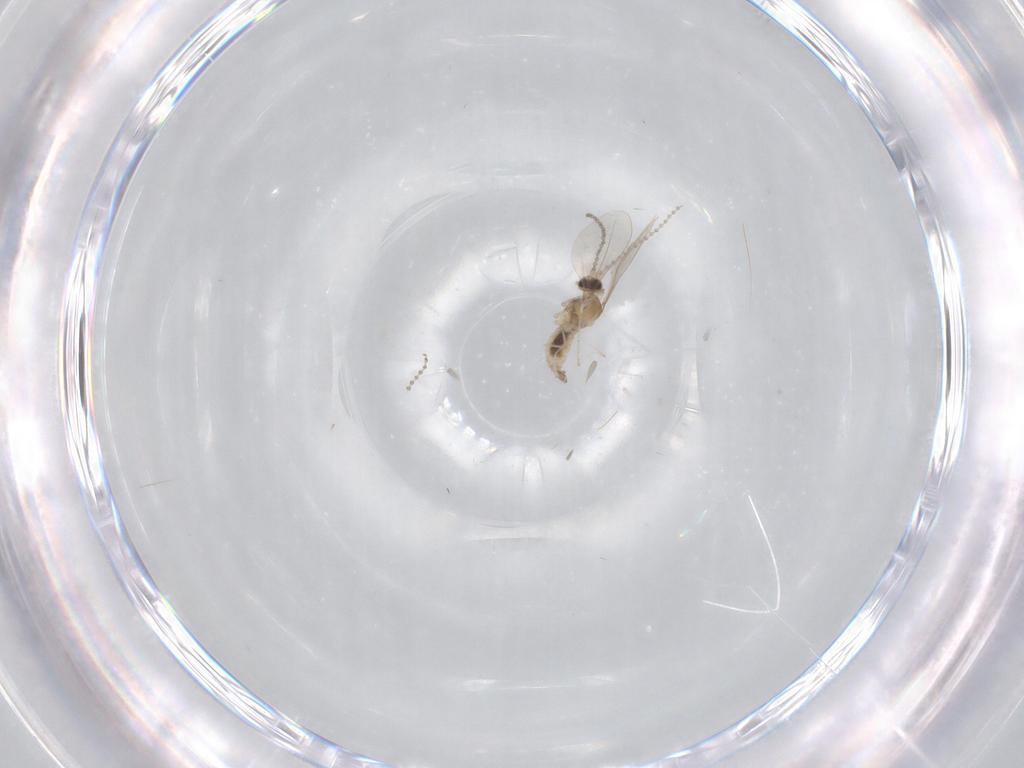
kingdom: Animalia
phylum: Arthropoda
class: Insecta
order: Diptera
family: Cecidomyiidae
